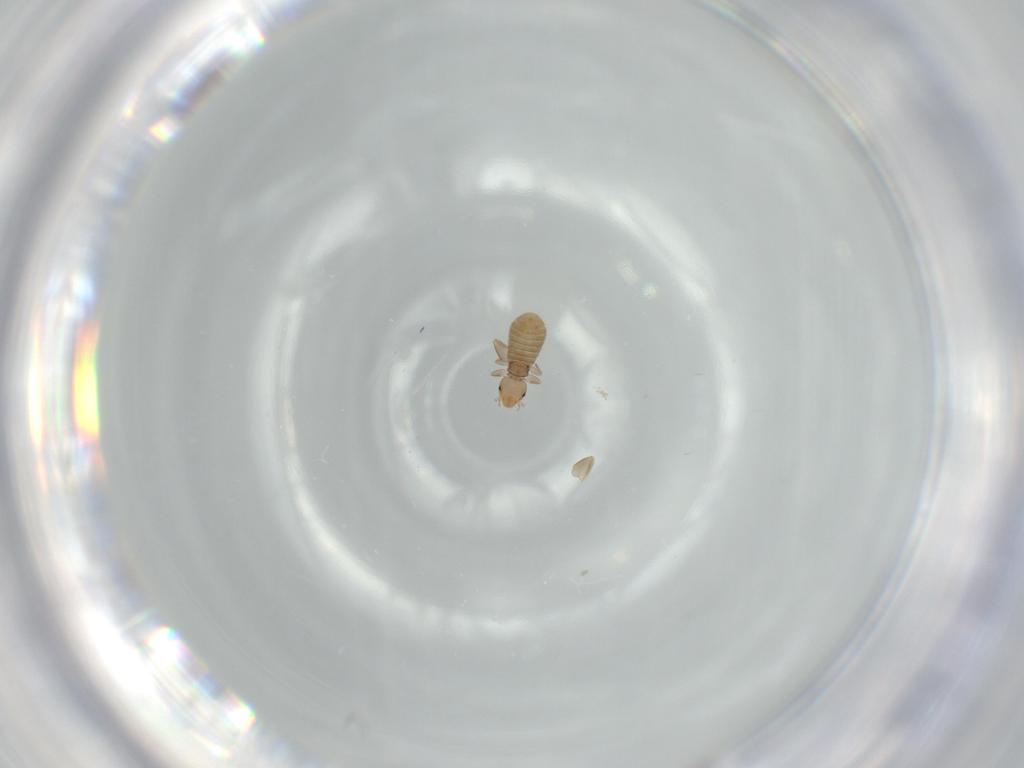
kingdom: Animalia
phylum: Arthropoda
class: Insecta
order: Psocodea
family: Liposcelididae
